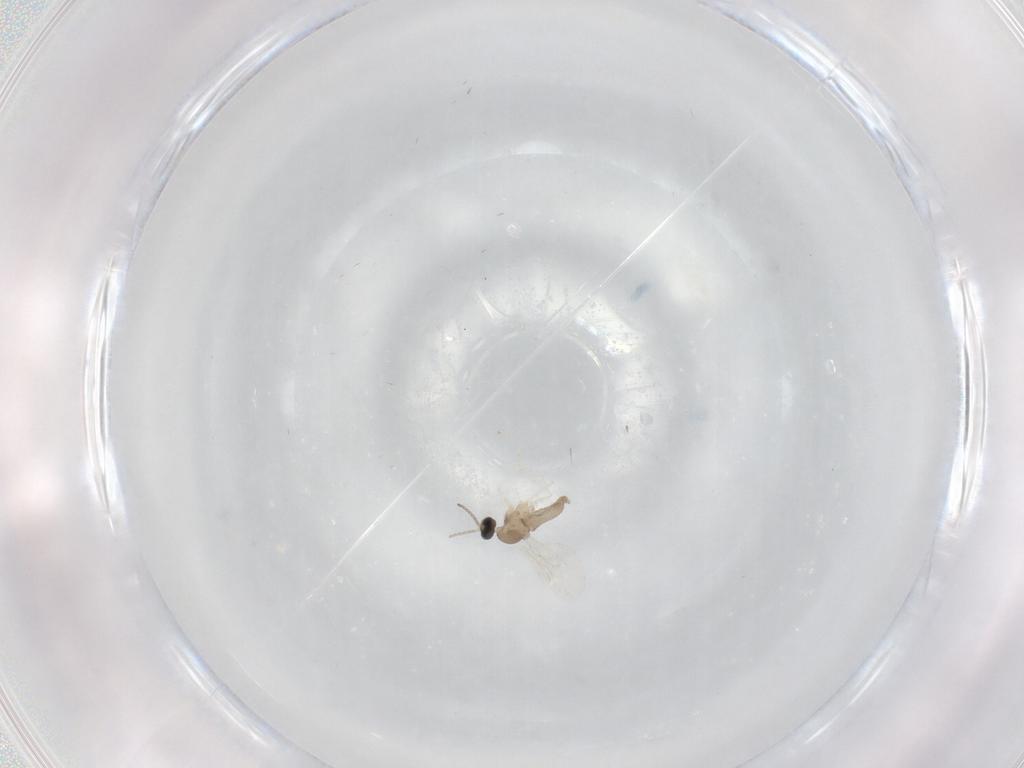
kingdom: Animalia
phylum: Arthropoda
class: Insecta
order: Diptera
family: Cecidomyiidae
